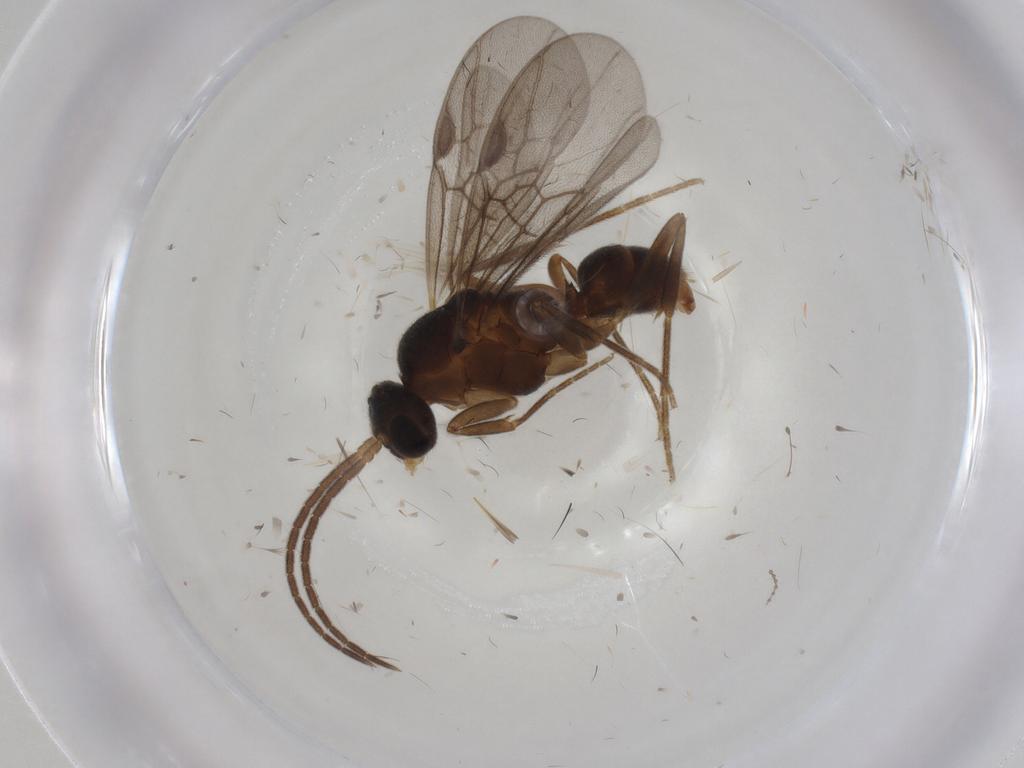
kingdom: Animalia
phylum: Arthropoda
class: Insecta
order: Hymenoptera
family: Formicidae
